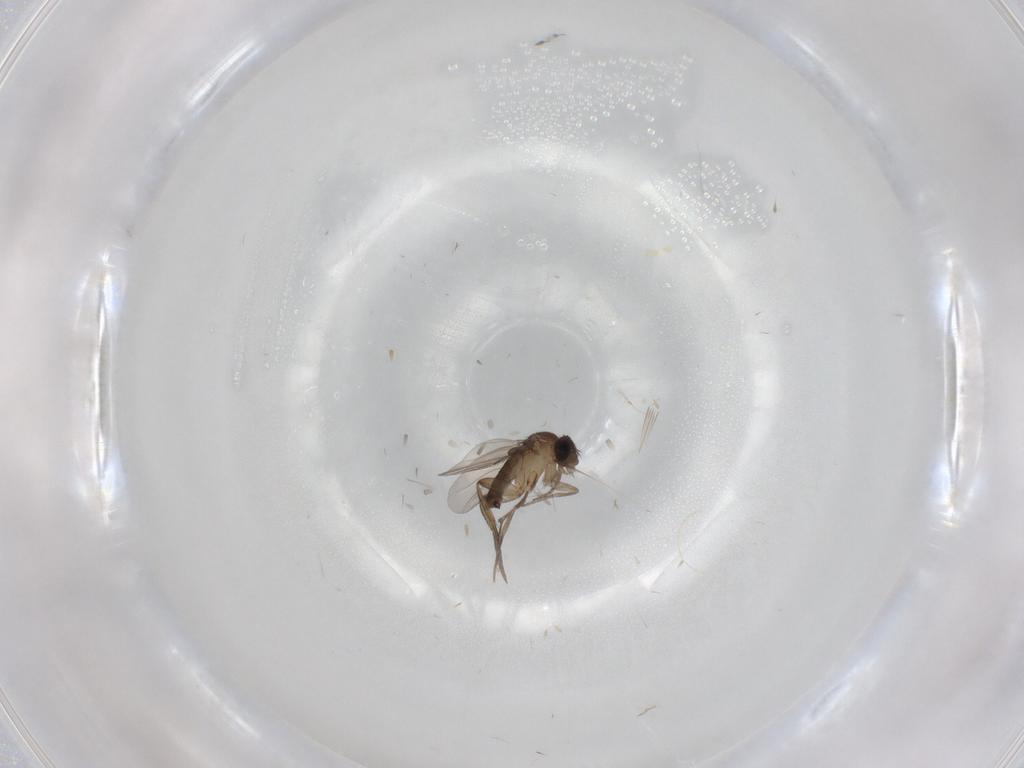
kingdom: Animalia
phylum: Arthropoda
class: Insecta
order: Diptera
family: Phoridae
